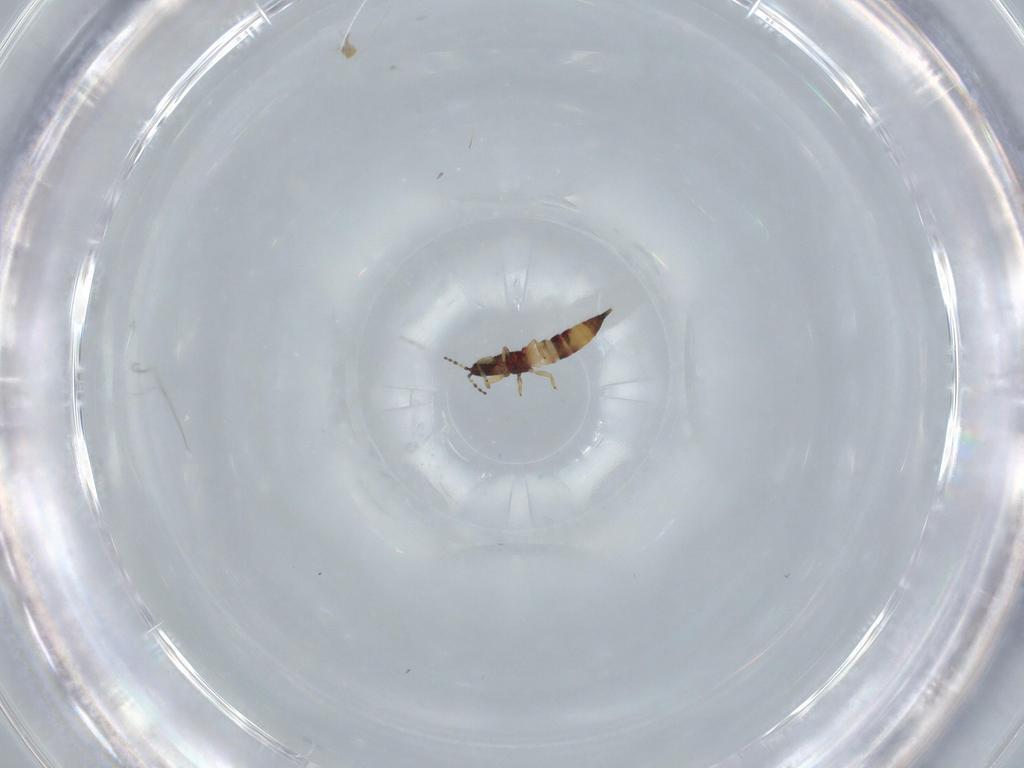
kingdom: Animalia
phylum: Arthropoda
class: Insecta
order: Thysanoptera
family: Phlaeothripidae
